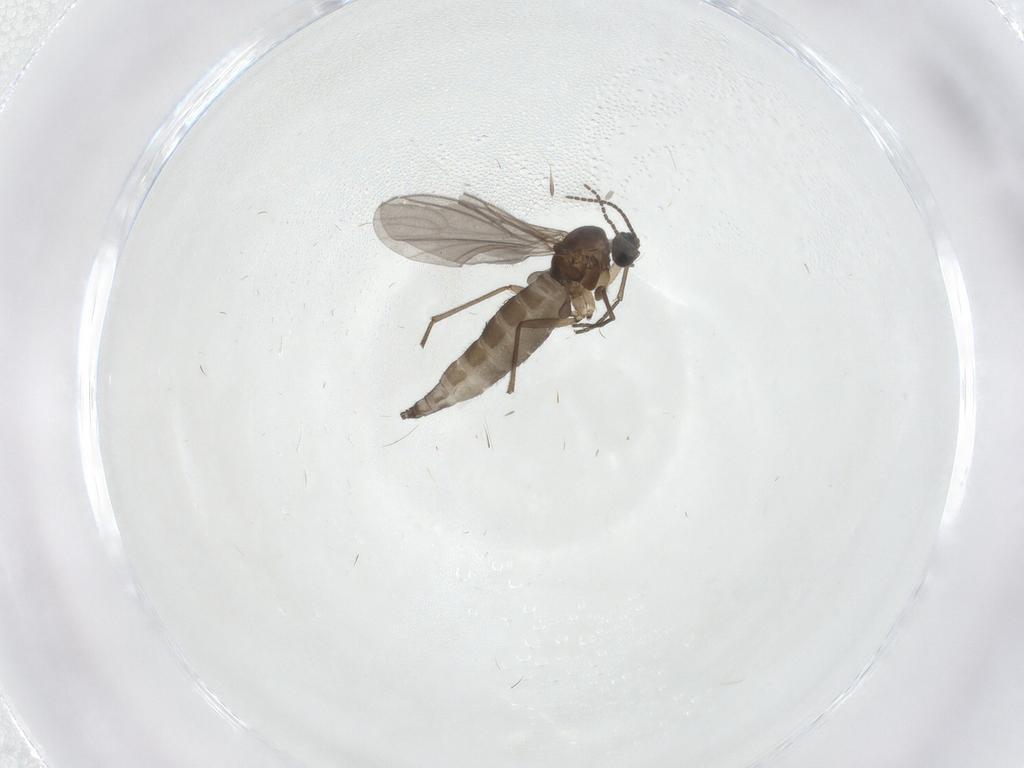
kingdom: Animalia
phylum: Arthropoda
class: Insecta
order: Diptera
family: Sciaridae
